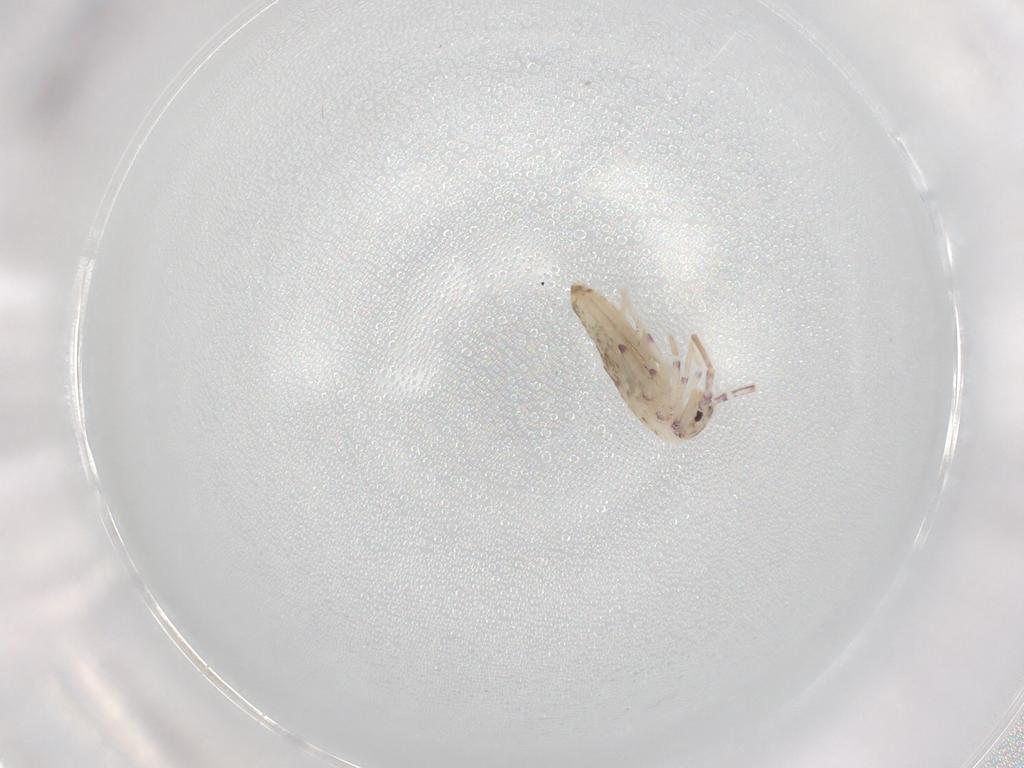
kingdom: Animalia
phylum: Arthropoda
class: Collembola
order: Entomobryomorpha
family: Entomobryidae
